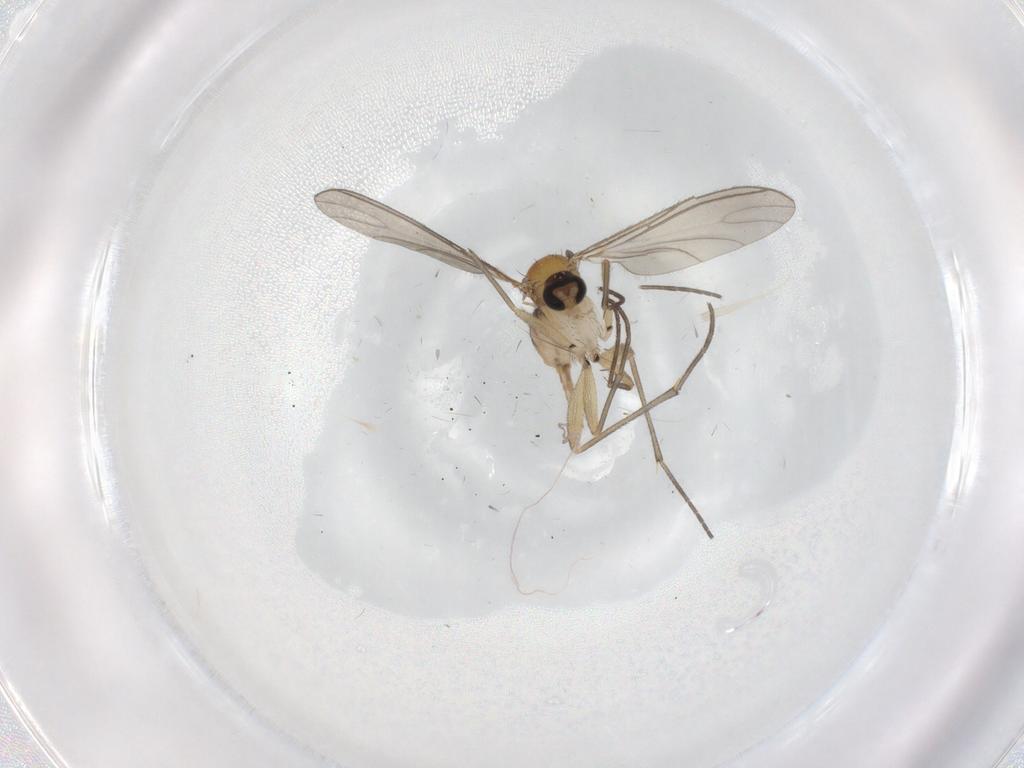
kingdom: Animalia
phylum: Arthropoda
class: Insecta
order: Diptera
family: Sciaridae
